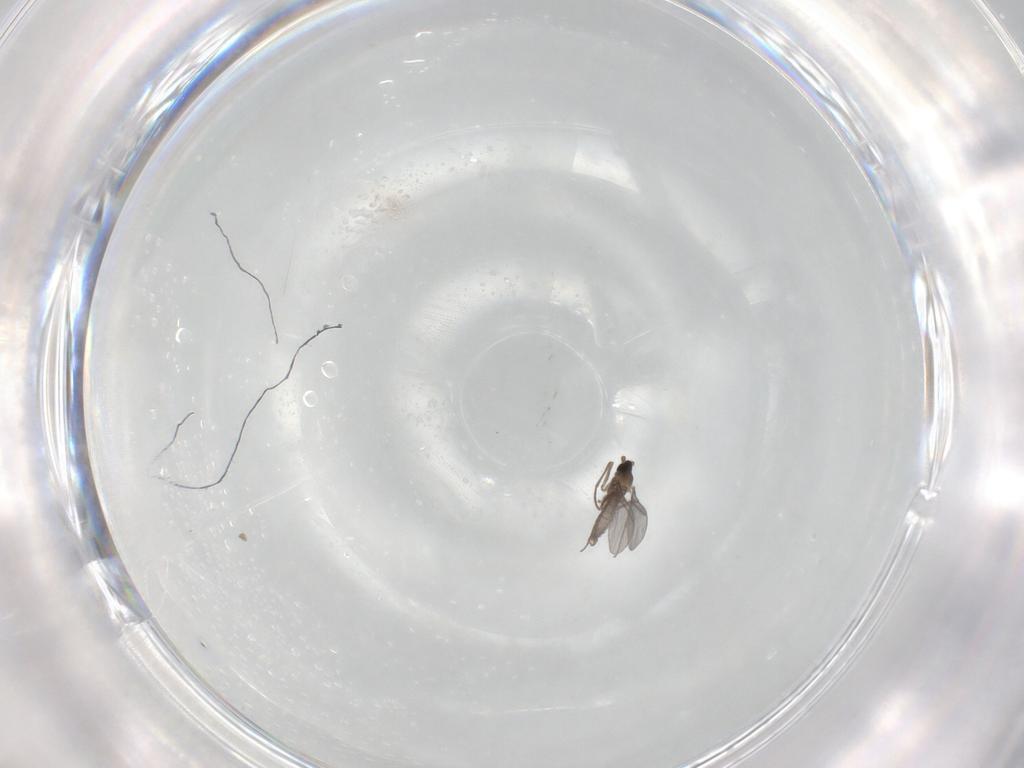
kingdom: Animalia
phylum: Arthropoda
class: Insecta
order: Diptera
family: Sciaridae
